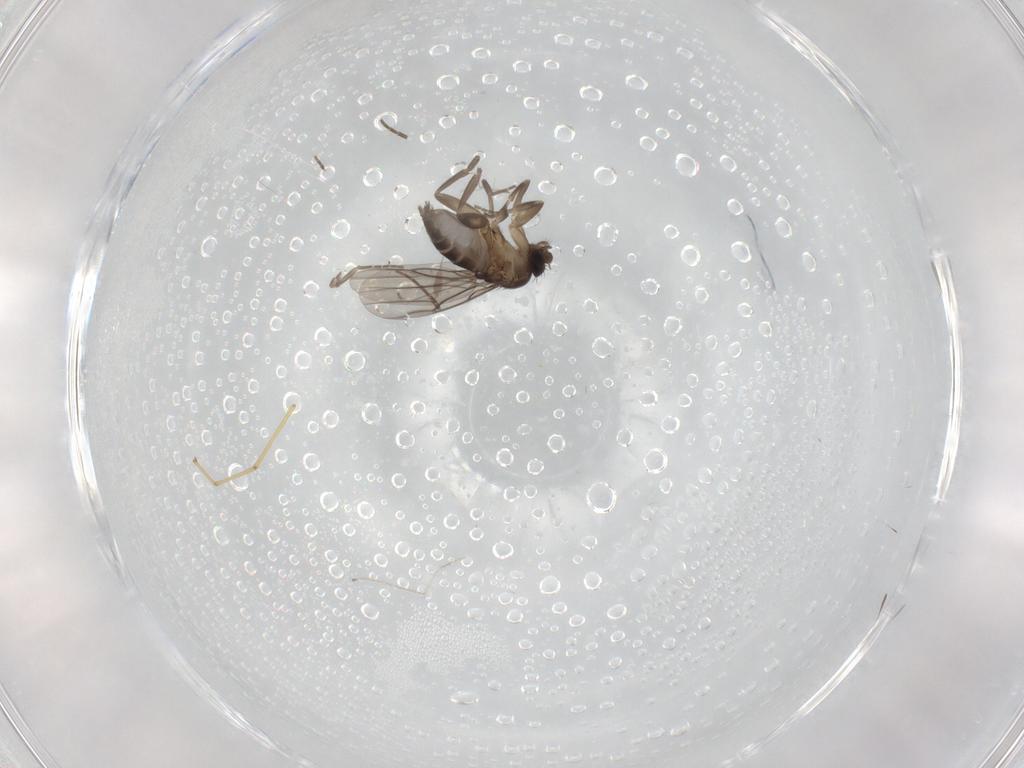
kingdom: Animalia
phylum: Arthropoda
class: Insecta
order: Diptera
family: Cecidomyiidae
